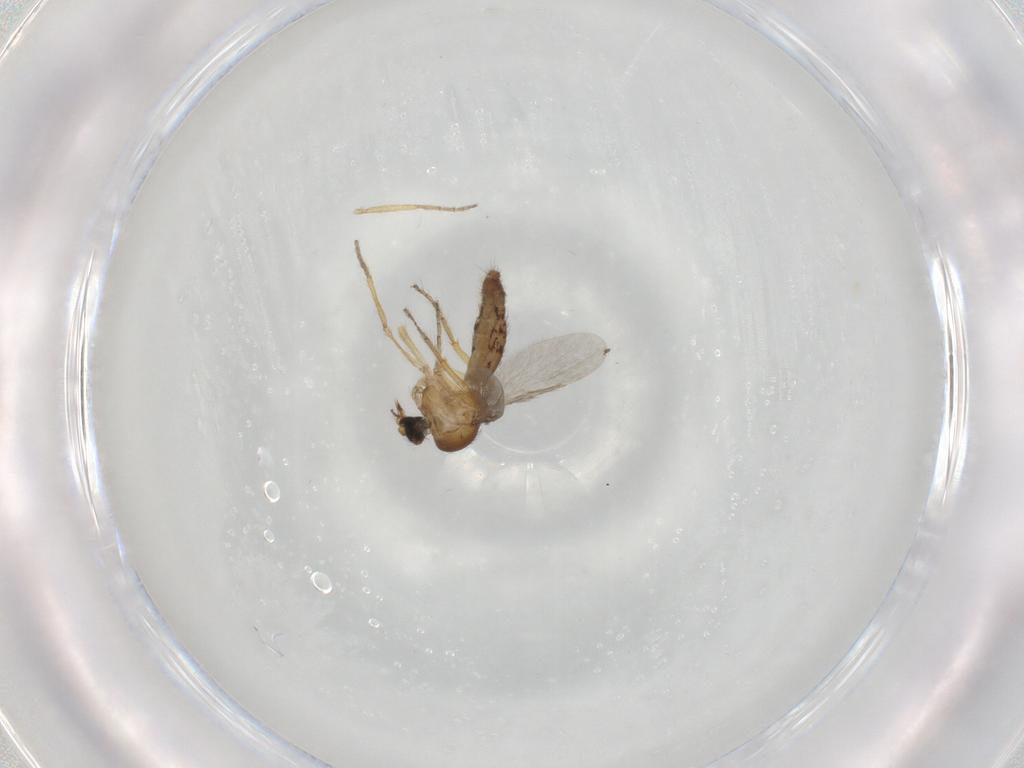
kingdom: Animalia
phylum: Arthropoda
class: Insecta
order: Diptera
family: Ceratopogonidae
